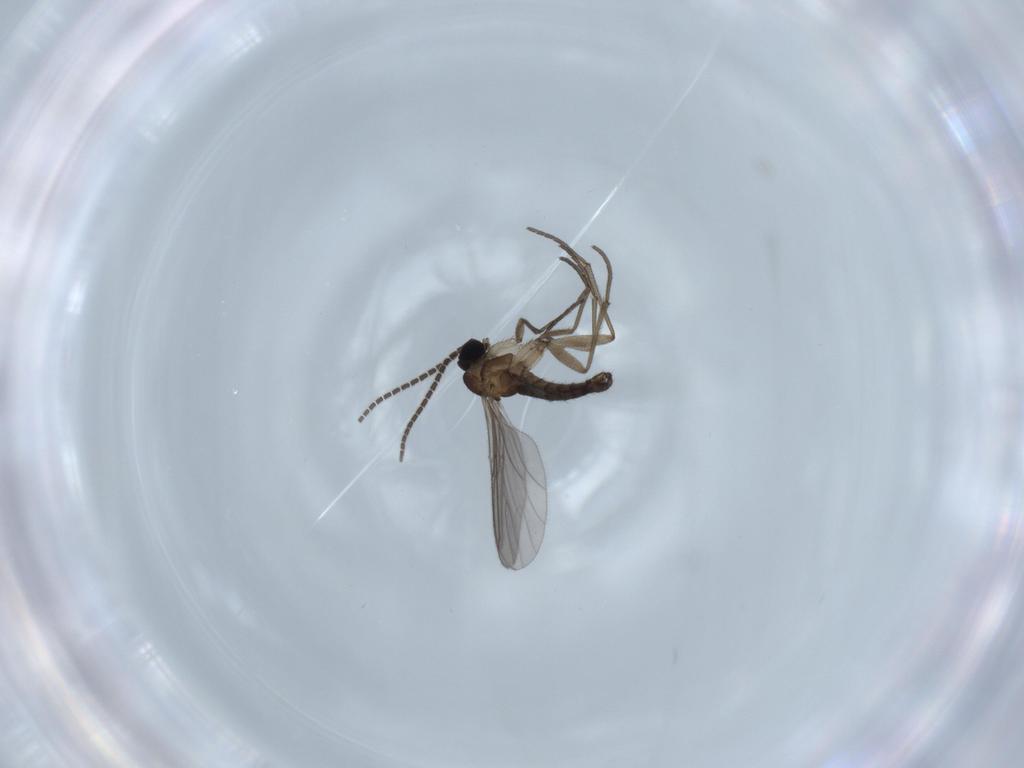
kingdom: Animalia
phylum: Arthropoda
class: Insecta
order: Diptera
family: Sciaridae
